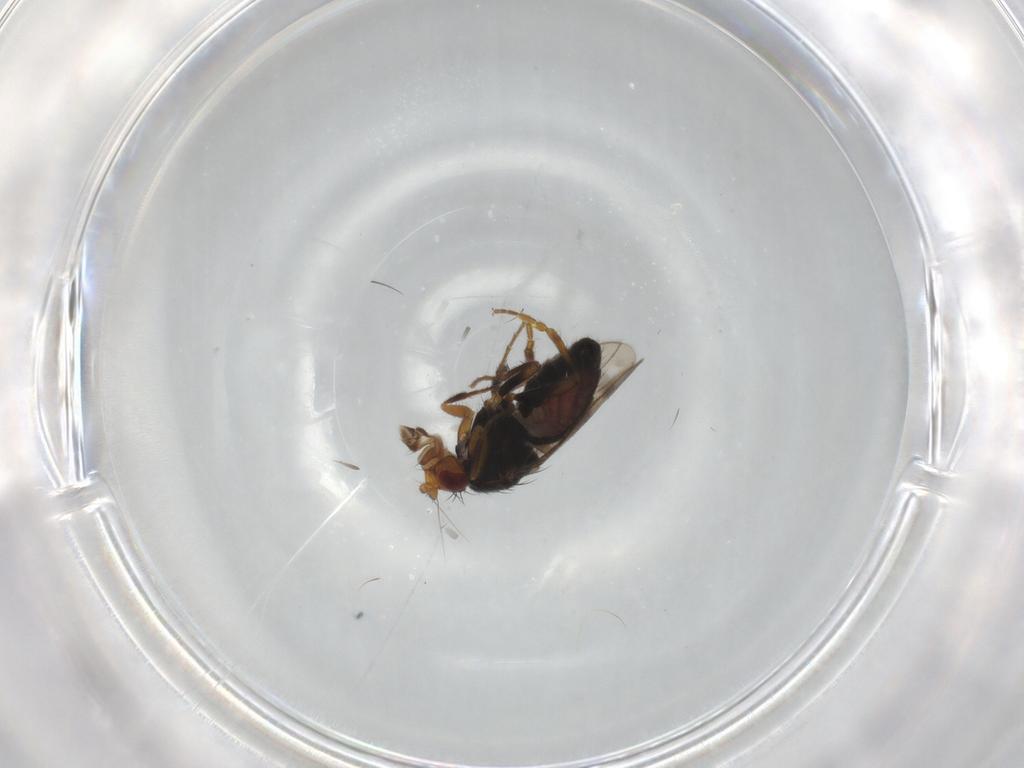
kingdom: Animalia
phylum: Arthropoda
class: Insecta
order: Diptera
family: Sphaeroceridae
